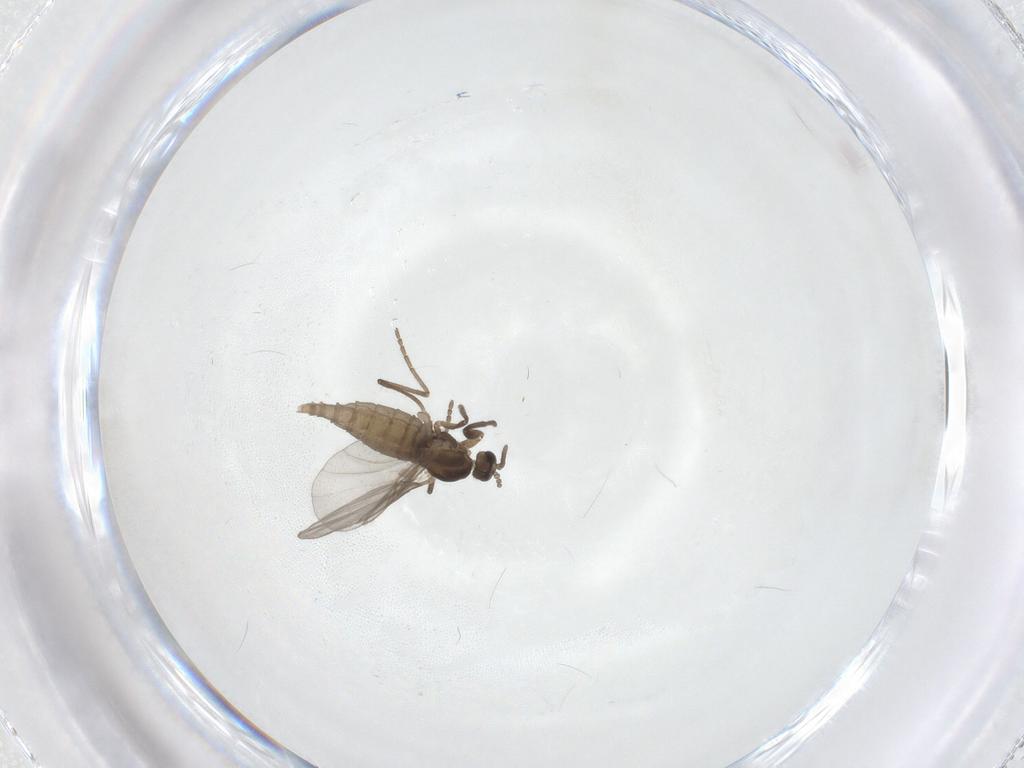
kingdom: Animalia
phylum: Arthropoda
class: Insecta
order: Diptera
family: Cecidomyiidae
